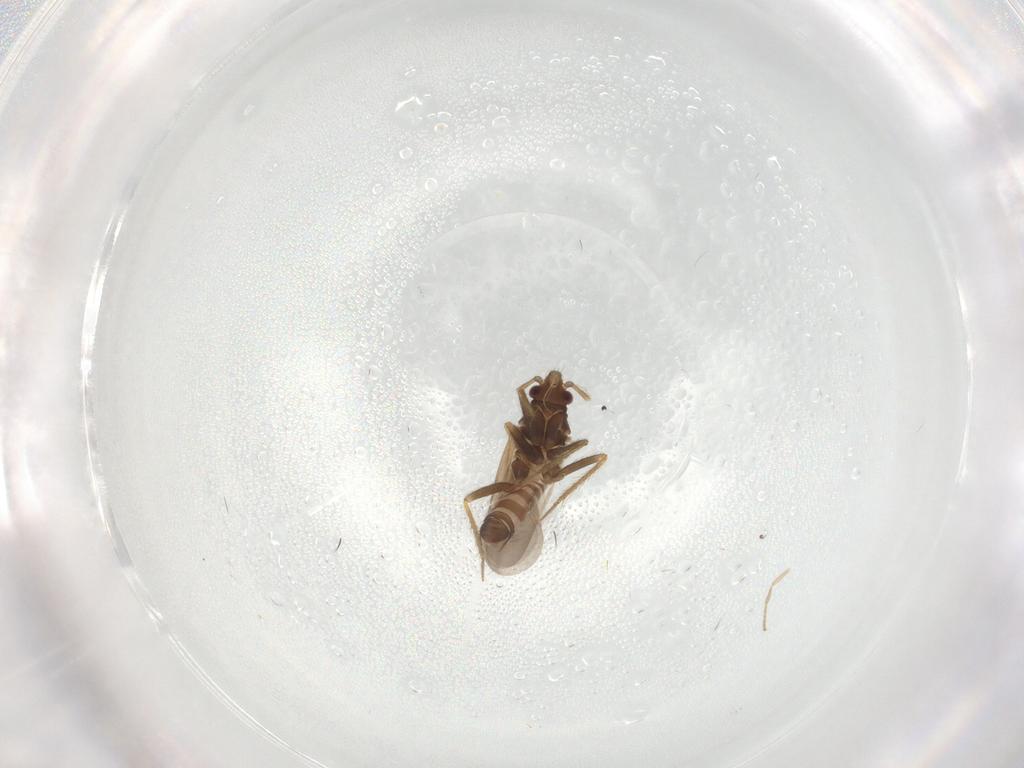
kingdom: Animalia
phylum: Arthropoda
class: Insecta
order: Hemiptera
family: Ceratocombidae
